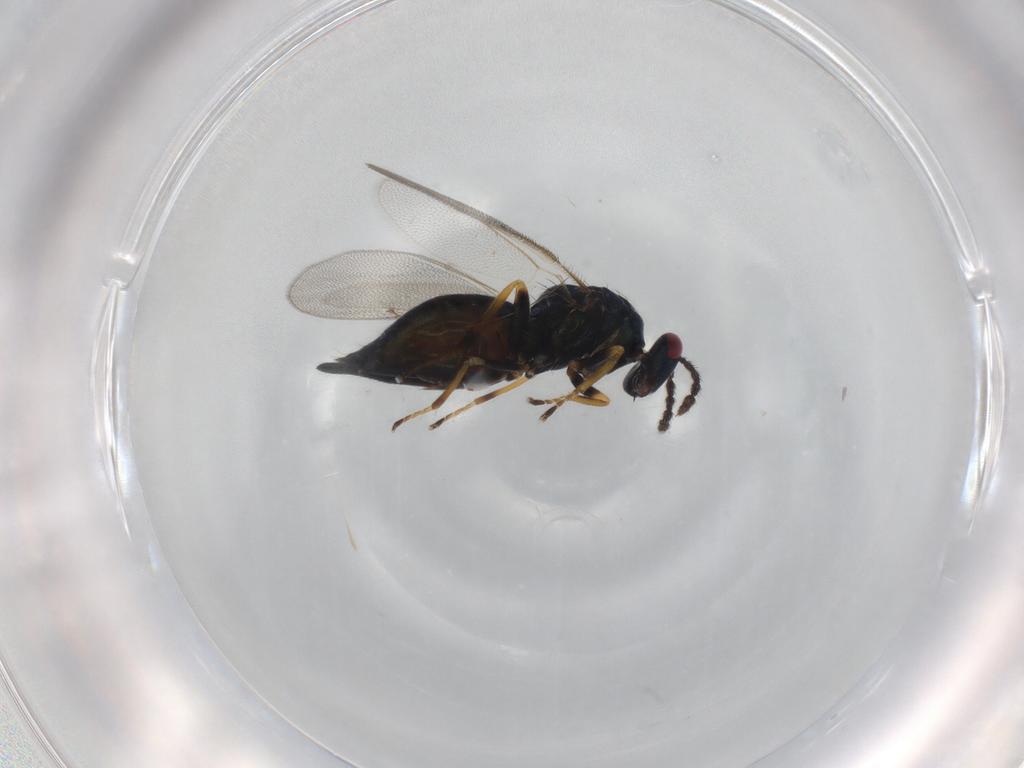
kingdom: Animalia
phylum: Arthropoda
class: Insecta
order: Hymenoptera
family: Eulophidae
